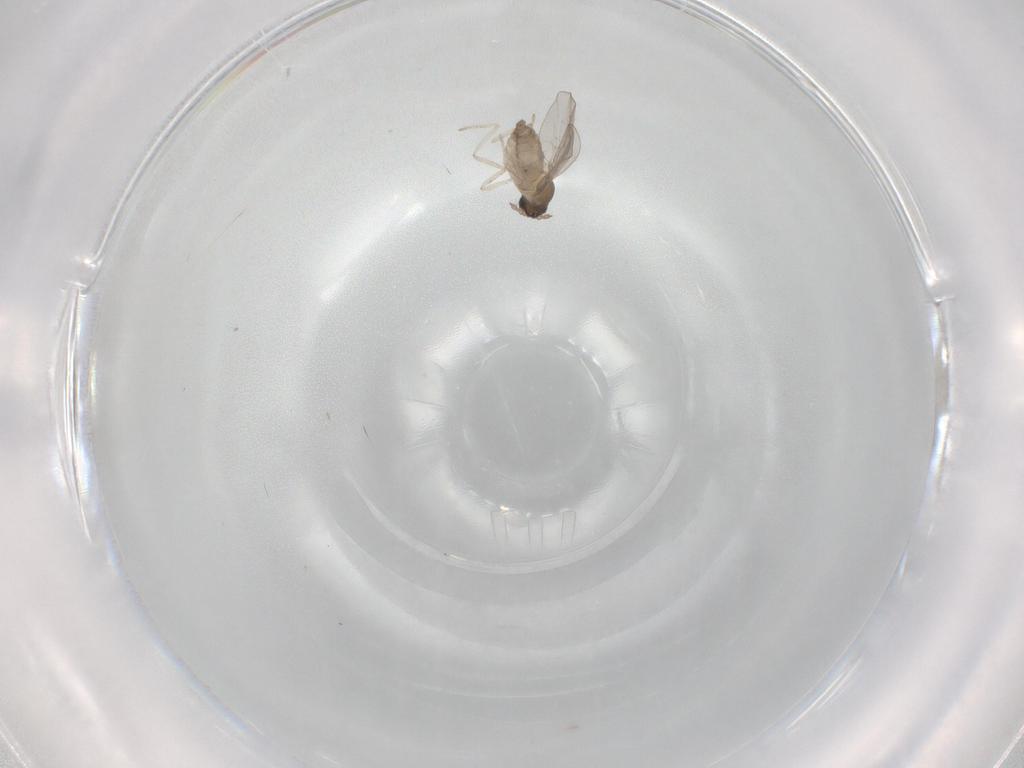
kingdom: Animalia
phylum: Arthropoda
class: Insecta
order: Diptera
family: Cecidomyiidae
